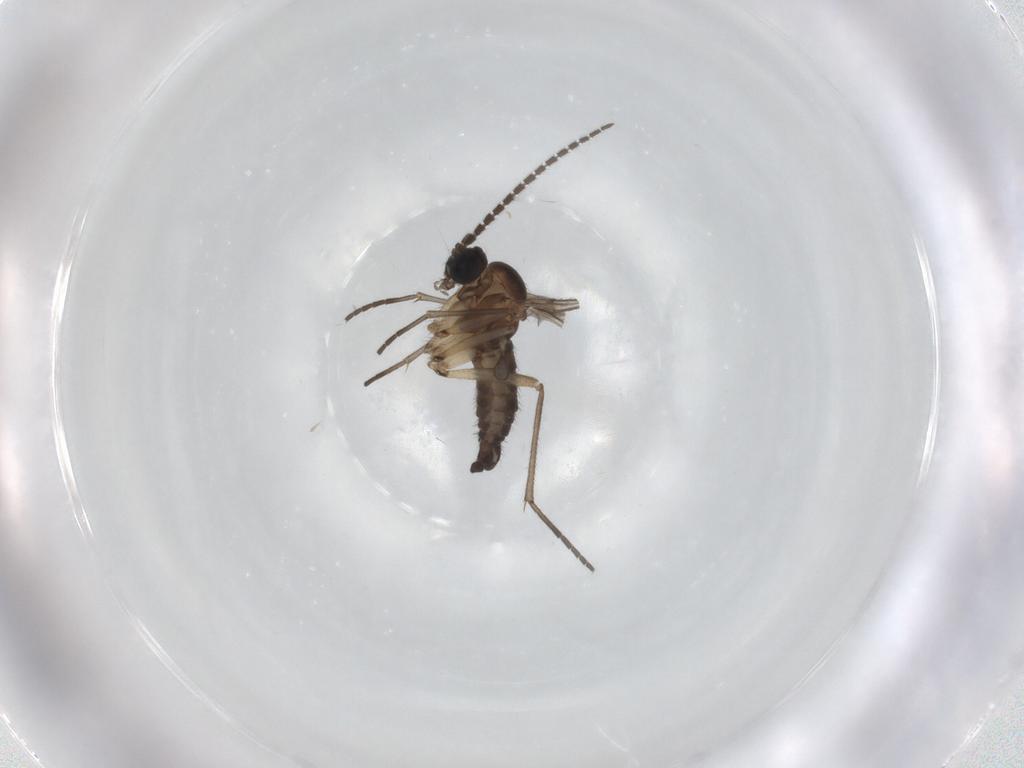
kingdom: Animalia
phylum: Arthropoda
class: Insecta
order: Diptera
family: Sciaridae
